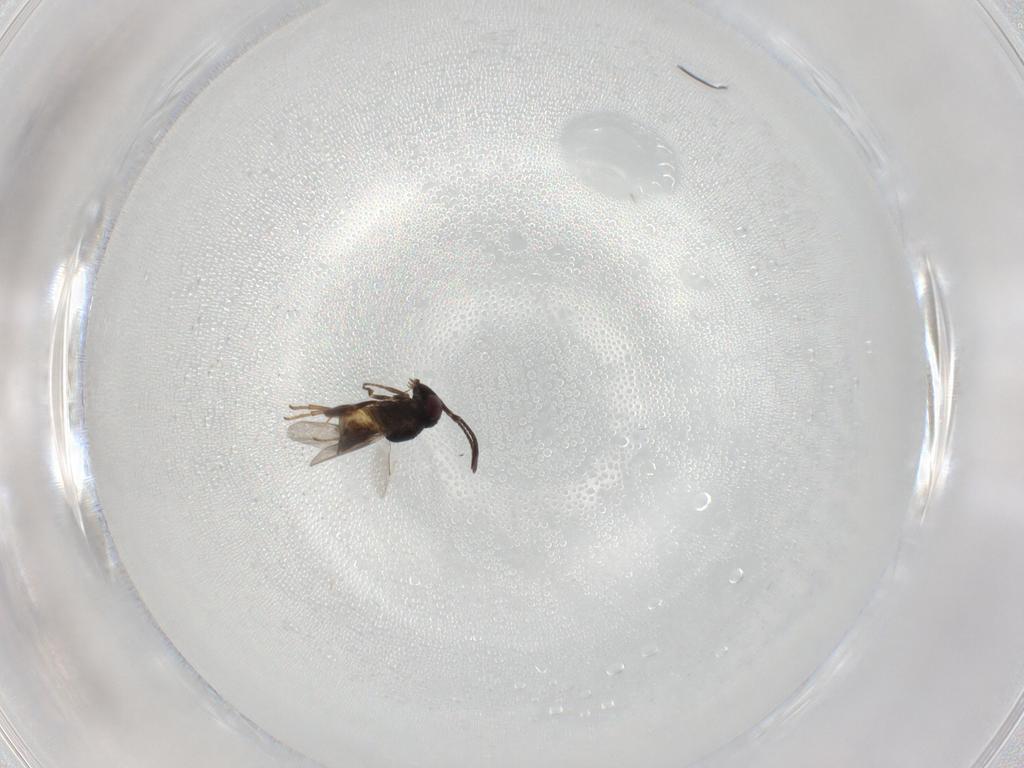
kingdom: Animalia
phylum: Arthropoda
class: Insecta
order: Hymenoptera
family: Encyrtidae
